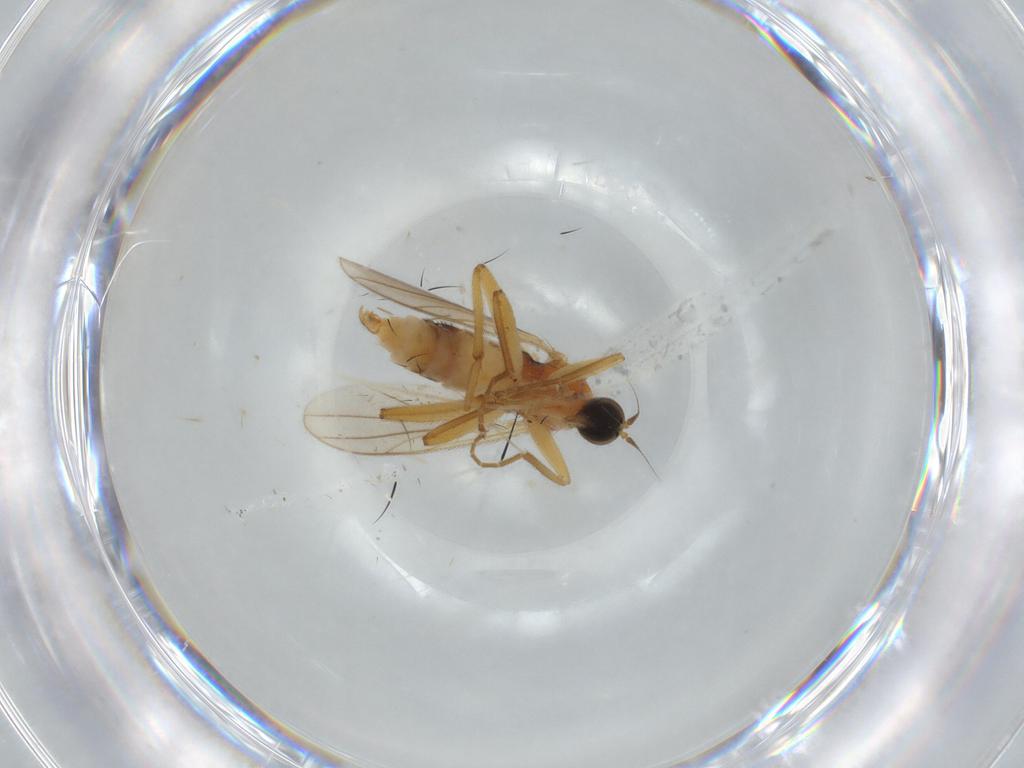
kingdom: Animalia
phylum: Arthropoda
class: Insecta
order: Diptera
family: Hybotidae
